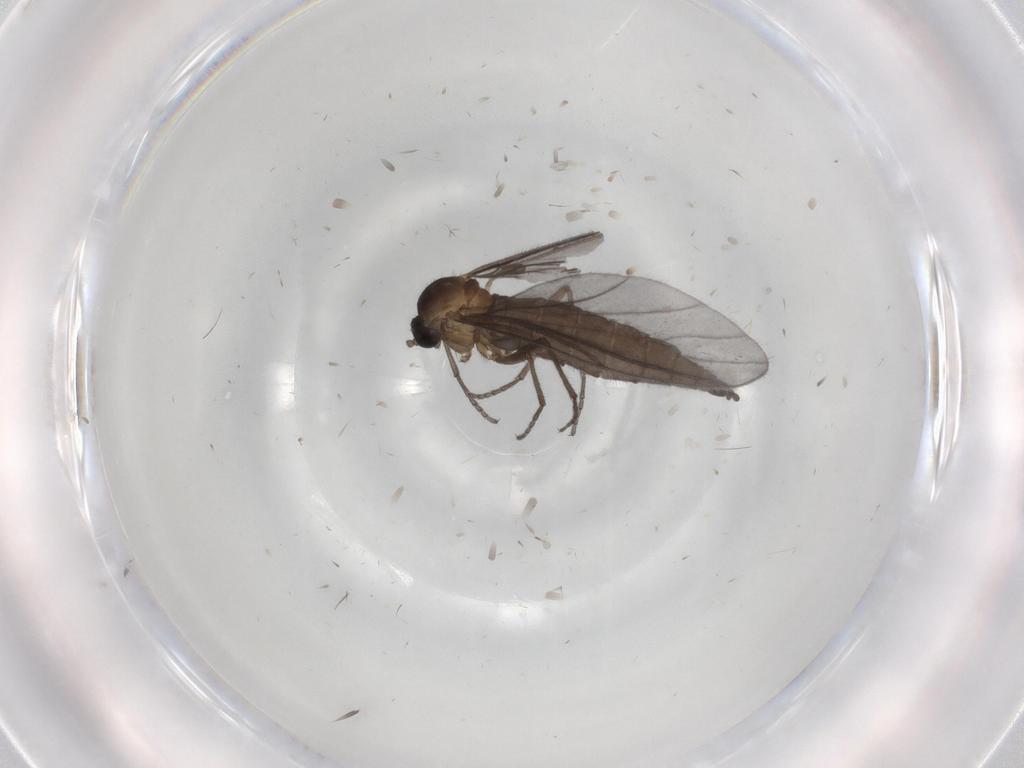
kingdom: Animalia
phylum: Arthropoda
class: Insecta
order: Diptera
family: Sciaridae
